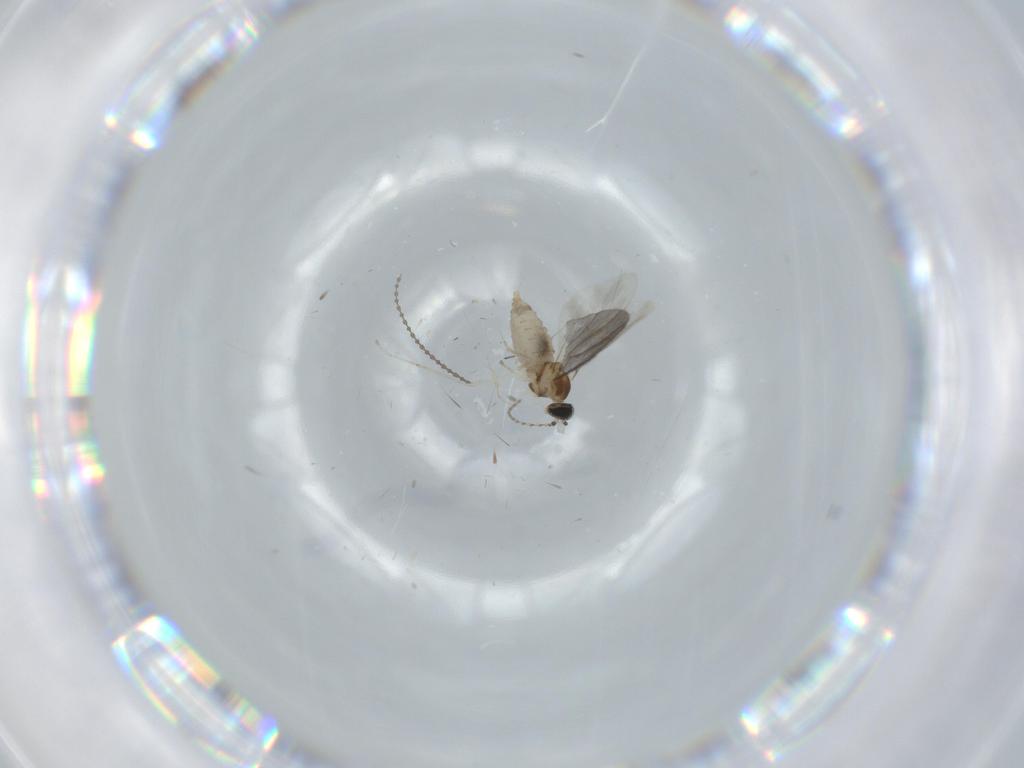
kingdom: Animalia
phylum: Arthropoda
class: Insecta
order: Diptera
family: Cecidomyiidae
